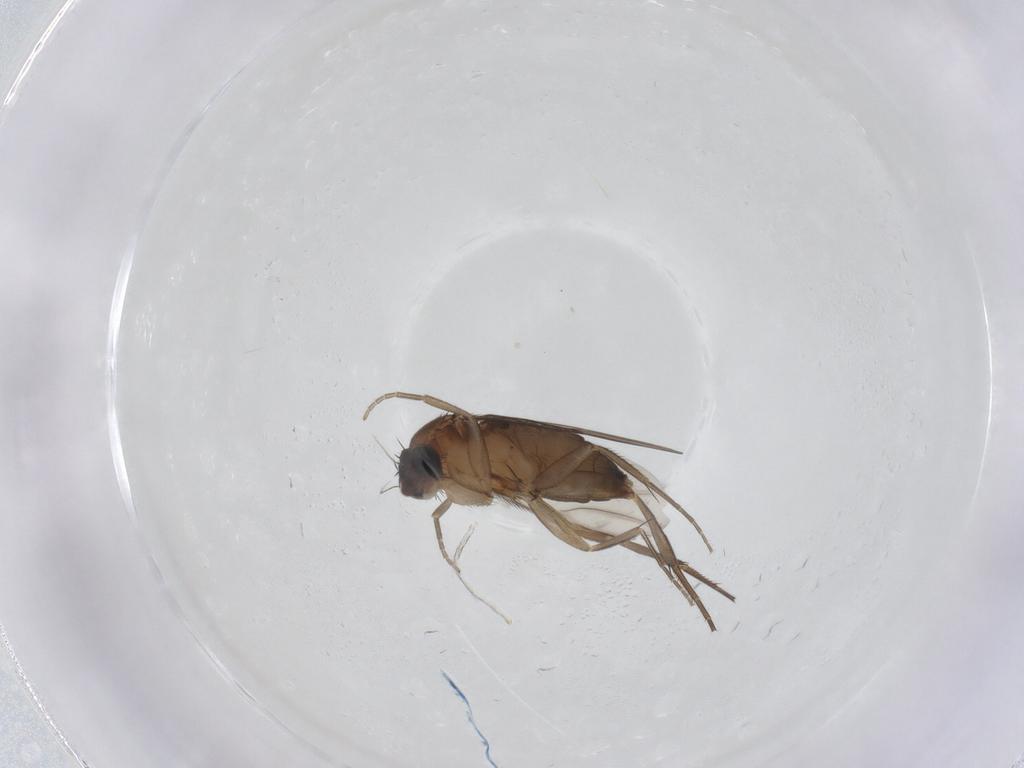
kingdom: Animalia
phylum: Arthropoda
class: Insecta
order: Diptera
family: Phoridae
